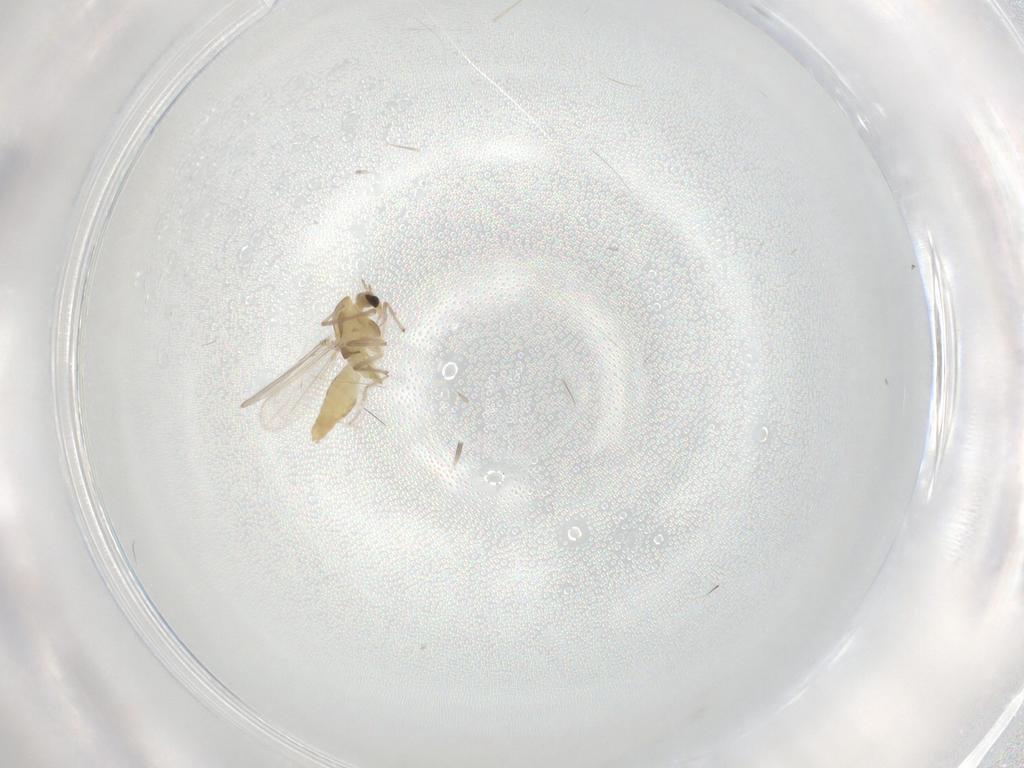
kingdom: Animalia
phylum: Arthropoda
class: Insecta
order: Diptera
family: Chironomidae
